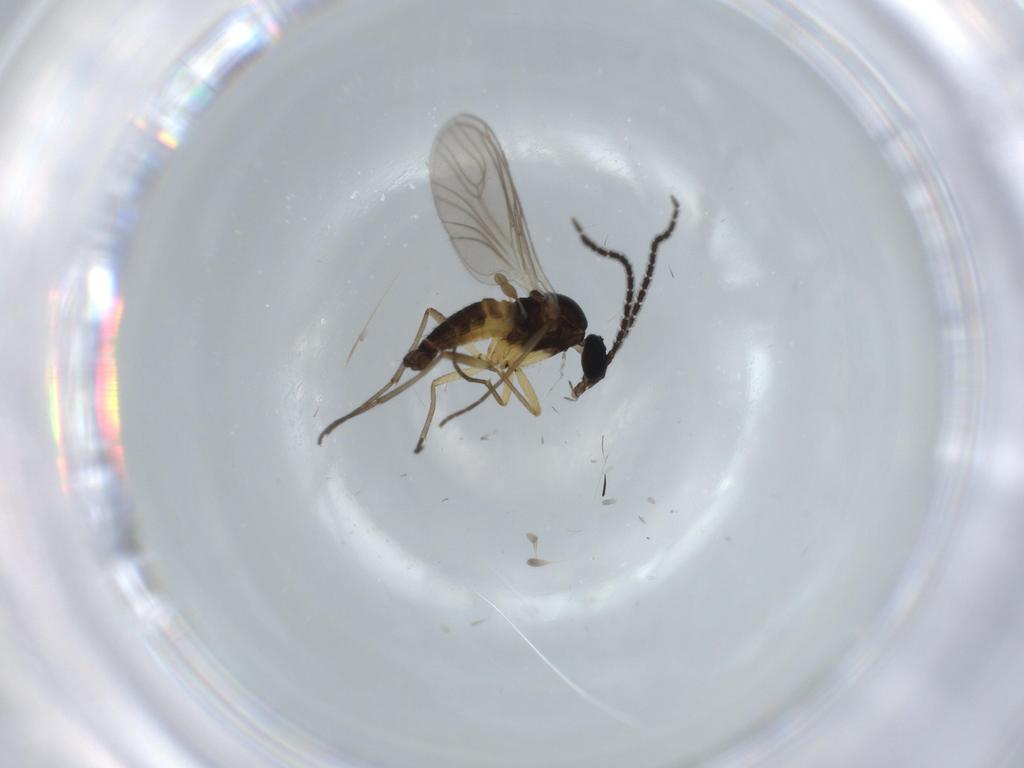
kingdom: Animalia
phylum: Arthropoda
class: Insecta
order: Diptera
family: Sciaridae
